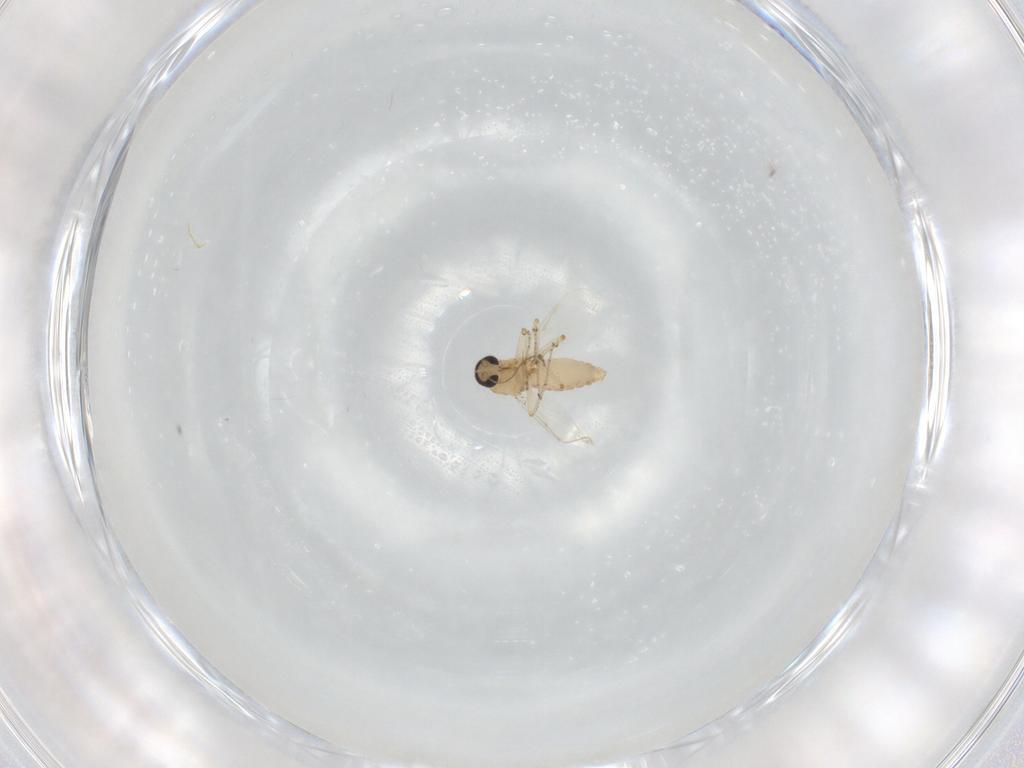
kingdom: Animalia
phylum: Arthropoda
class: Insecta
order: Diptera
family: Ceratopogonidae
